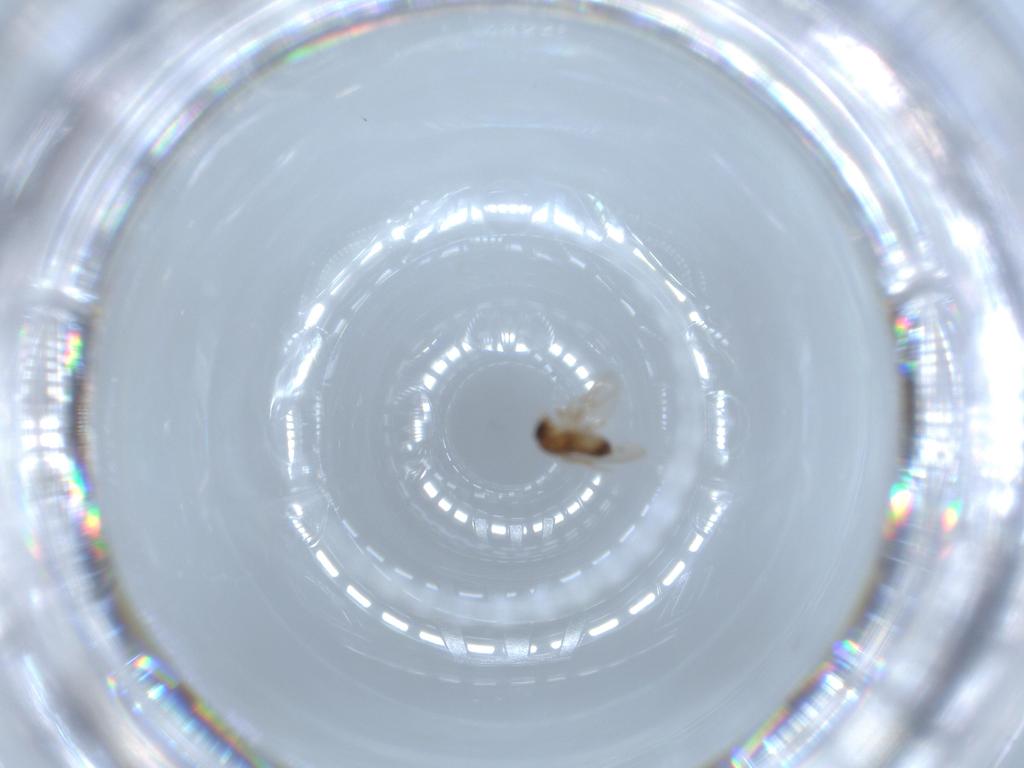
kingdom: Animalia
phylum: Arthropoda
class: Insecta
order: Diptera
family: Phoridae
